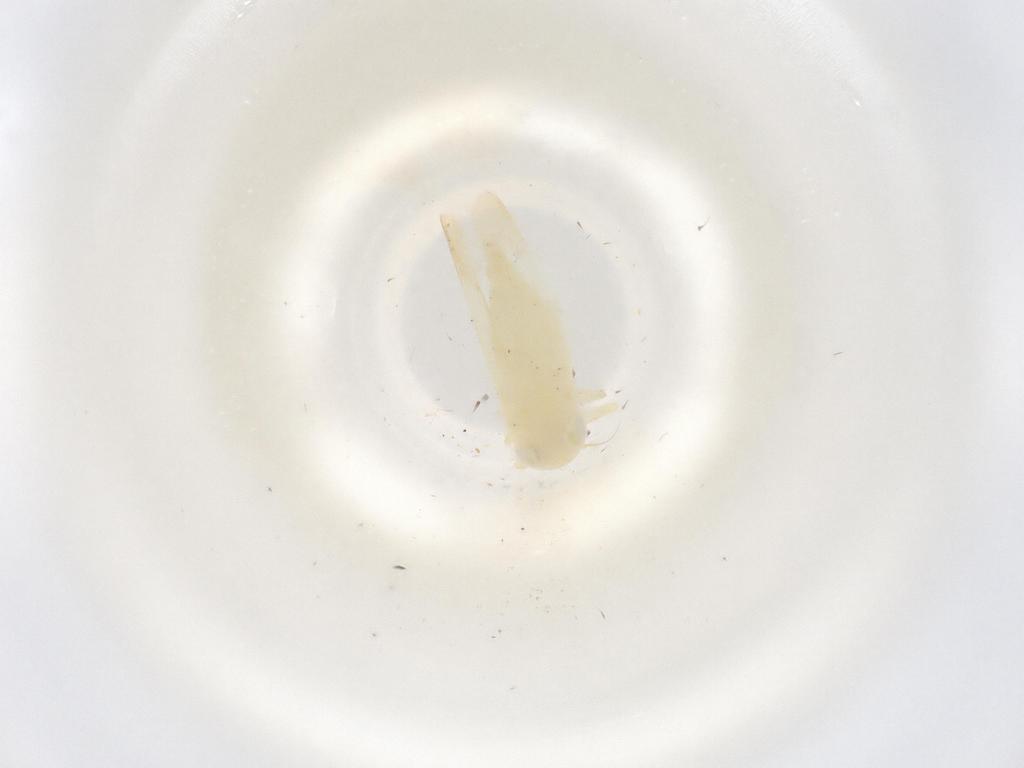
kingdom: Animalia
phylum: Arthropoda
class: Insecta
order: Hemiptera
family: Cicadellidae
